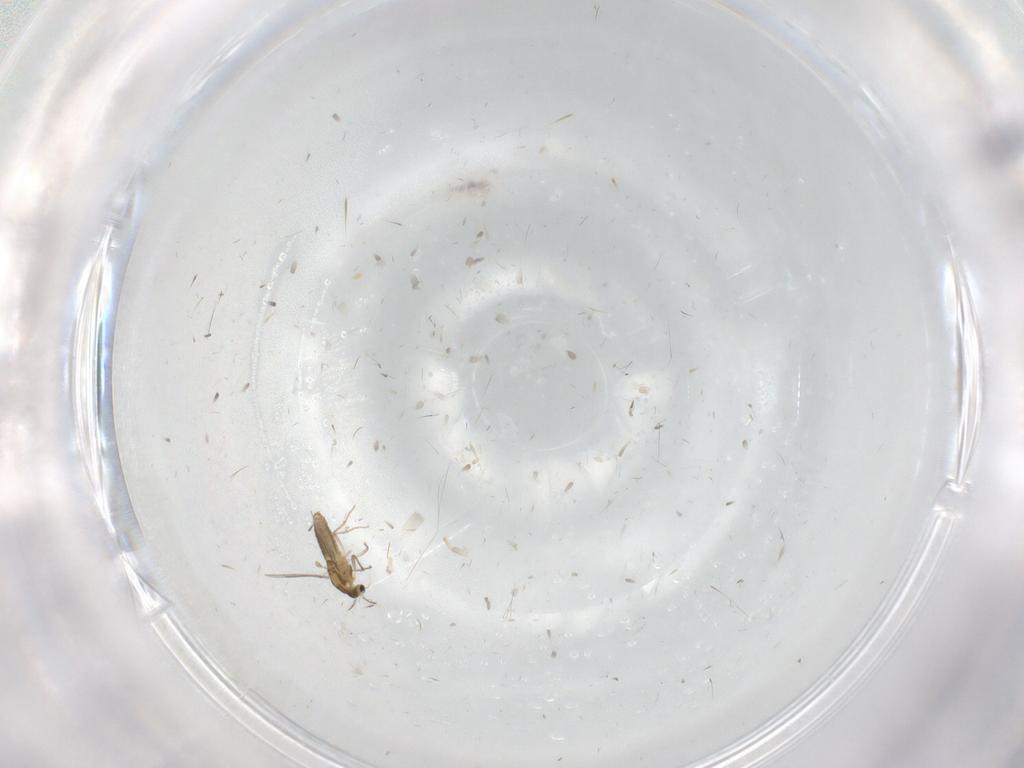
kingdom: Animalia
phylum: Arthropoda
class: Insecta
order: Diptera
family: Chironomidae
